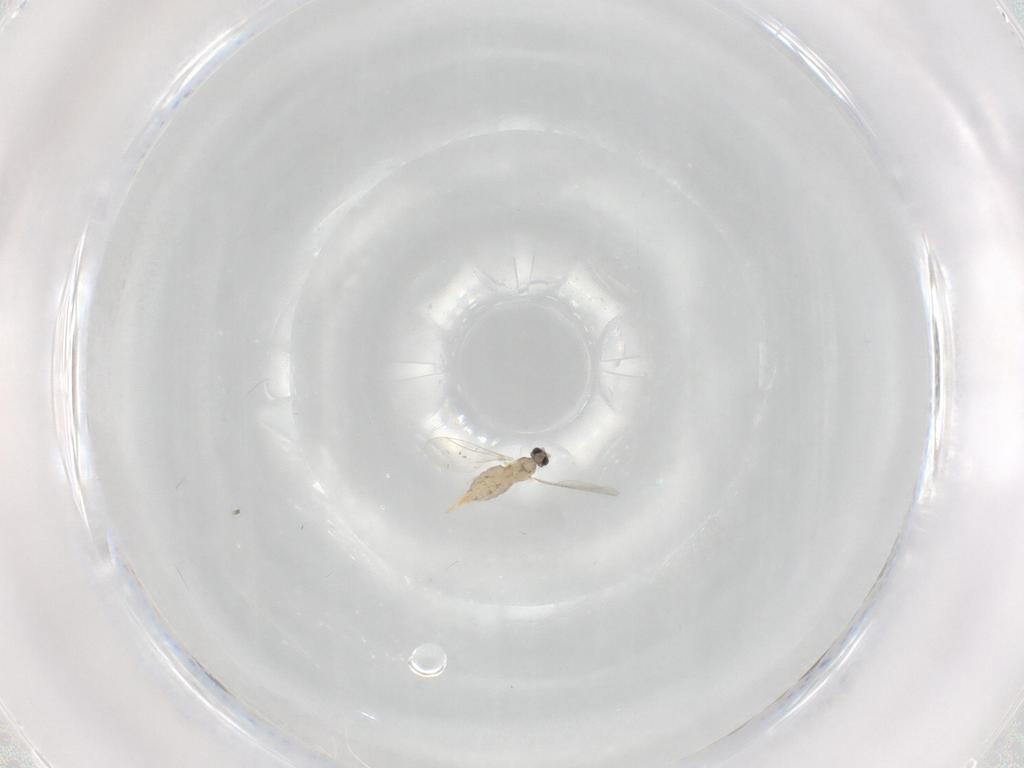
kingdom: Animalia
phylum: Arthropoda
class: Insecta
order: Diptera
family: Cecidomyiidae
